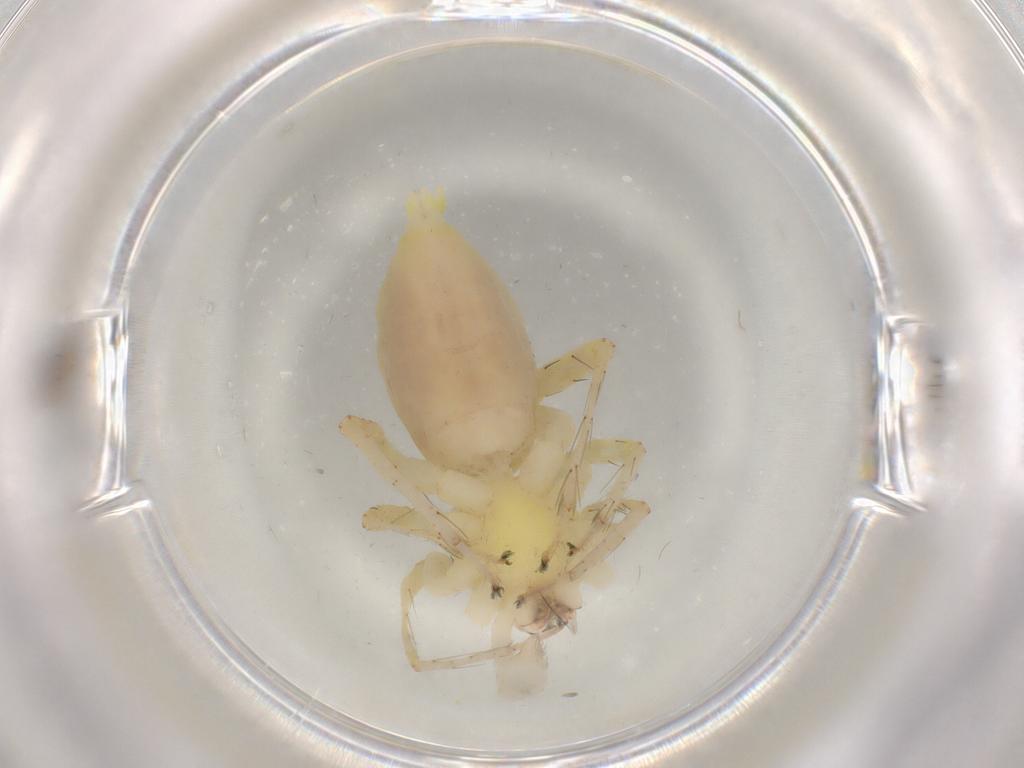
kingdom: Animalia
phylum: Arthropoda
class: Arachnida
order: Araneae
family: Anyphaenidae
